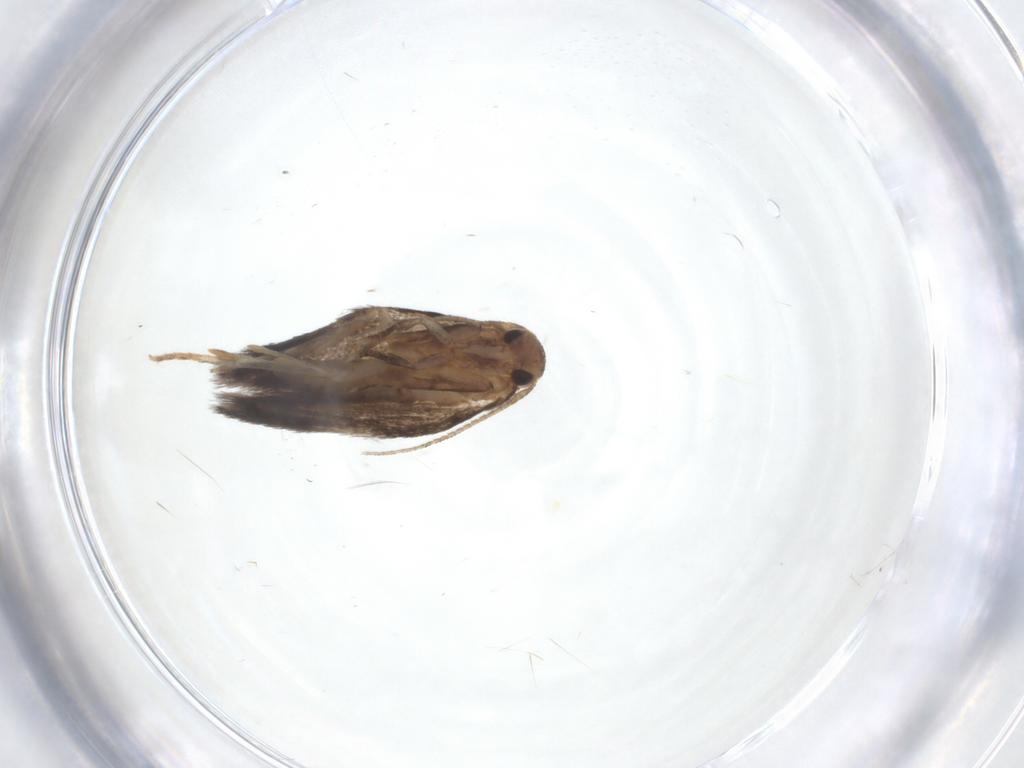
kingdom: Animalia
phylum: Arthropoda
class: Insecta
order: Lepidoptera
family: Elachistidae
